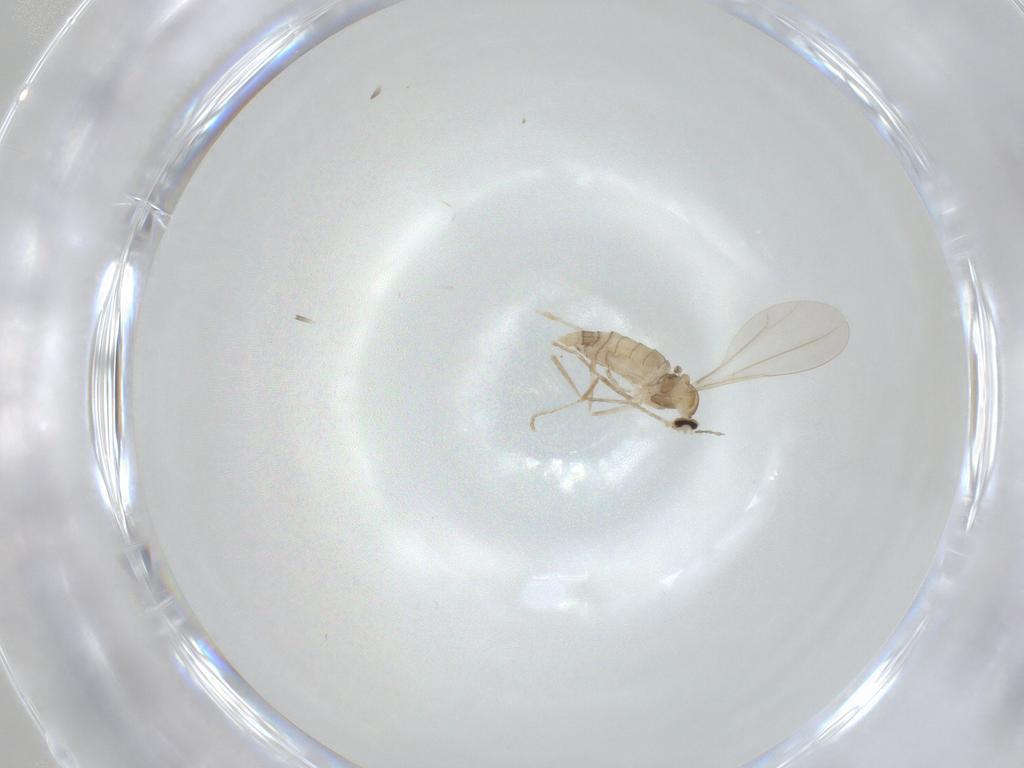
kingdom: Animalia
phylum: Arthropoda
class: Insecta
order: Diptera
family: Cecidomyiidae
